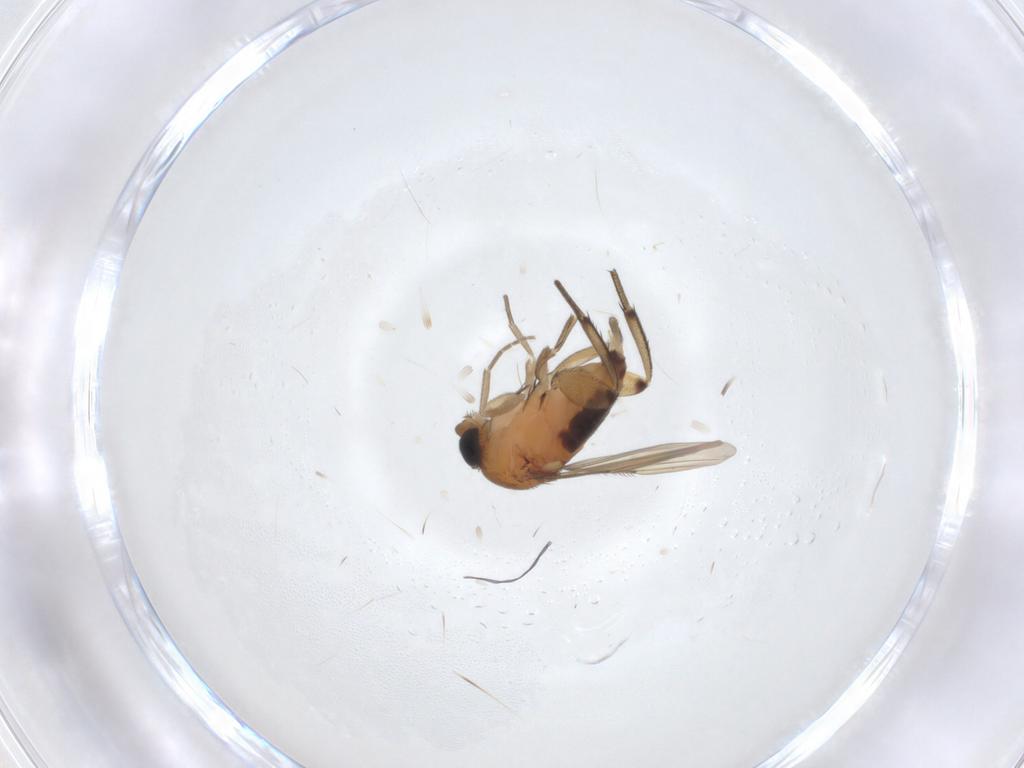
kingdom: Animalia
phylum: Arthropoda
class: Insecta
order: Diptera
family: Phoridae
